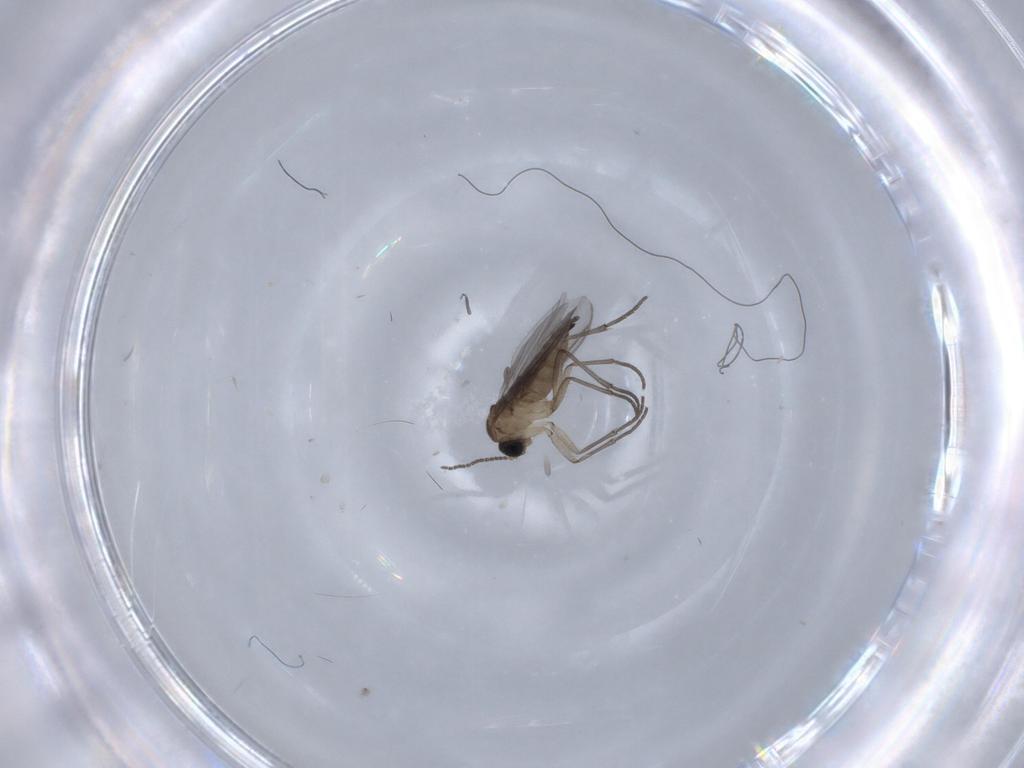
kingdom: Animalia
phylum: Arthropoda
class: Insecta
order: Diptera
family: Sciaridae
